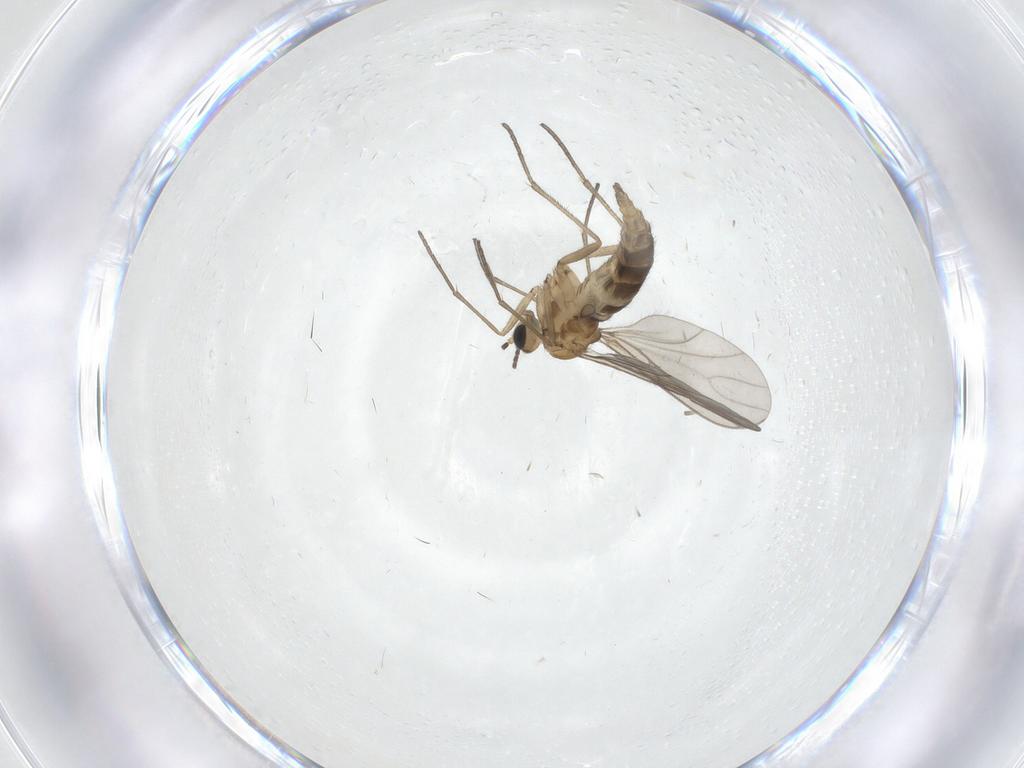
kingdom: Animalia
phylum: Arthropoda
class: Insecta
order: Diptera
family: Sciaridae
